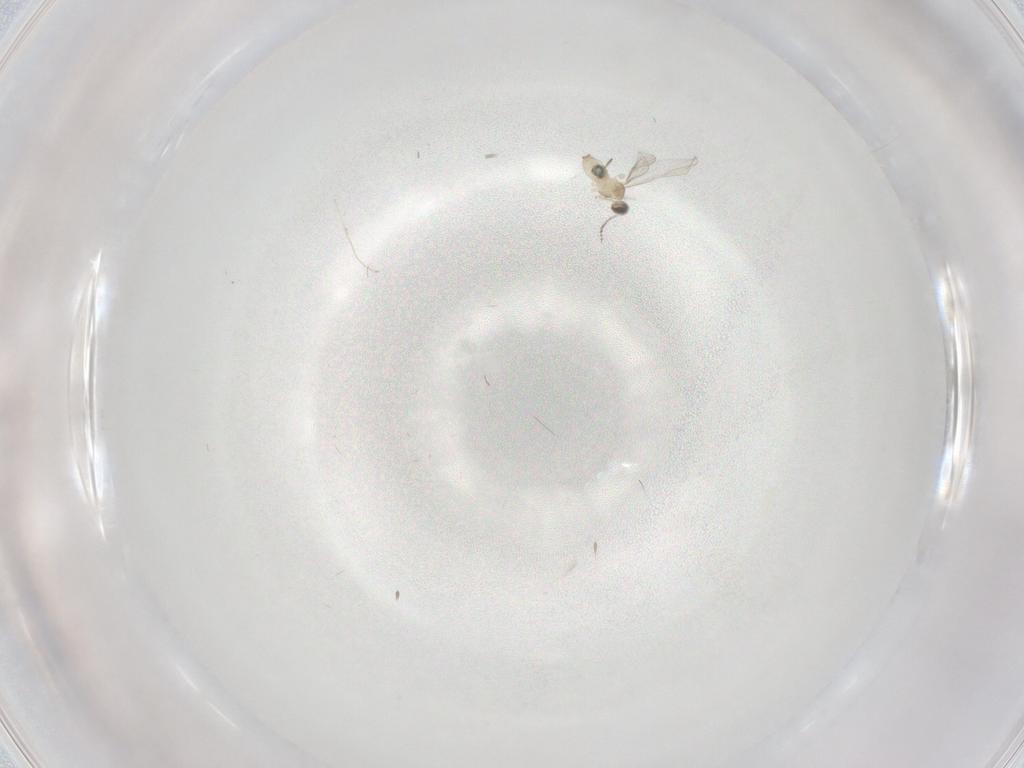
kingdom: Animalia
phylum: Arthropoda
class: Insecta
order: Diptera
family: Cecidomyiidae
